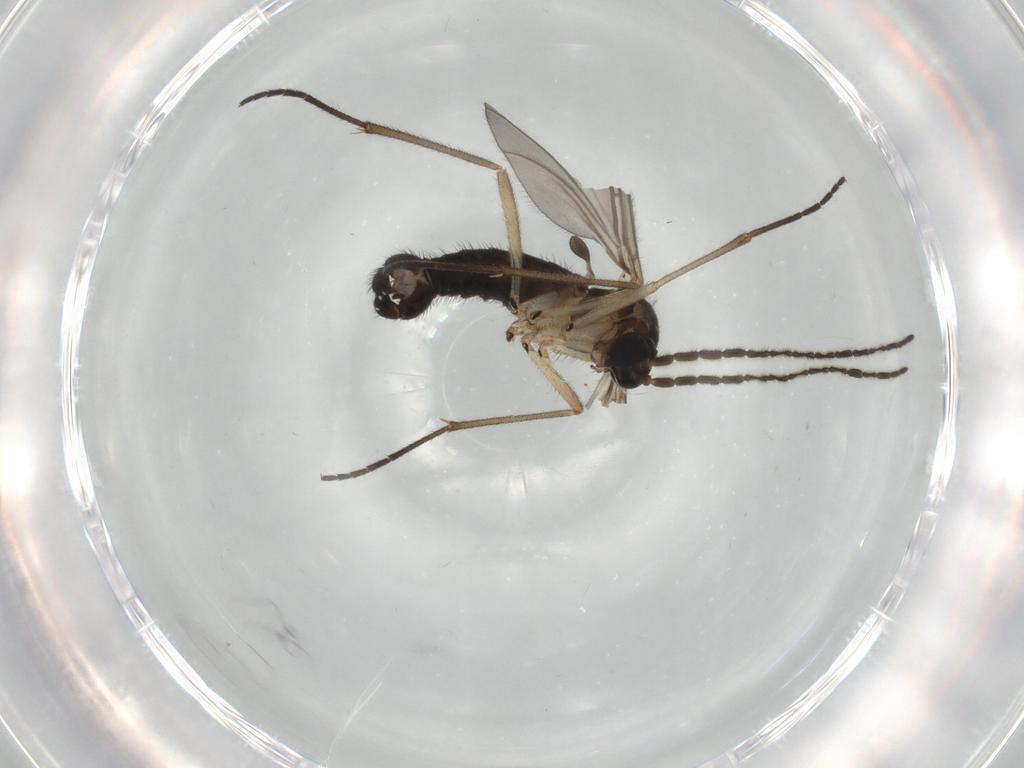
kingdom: Animalia
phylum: Arthropoda
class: Insecta
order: Diptera
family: Sciaridae
